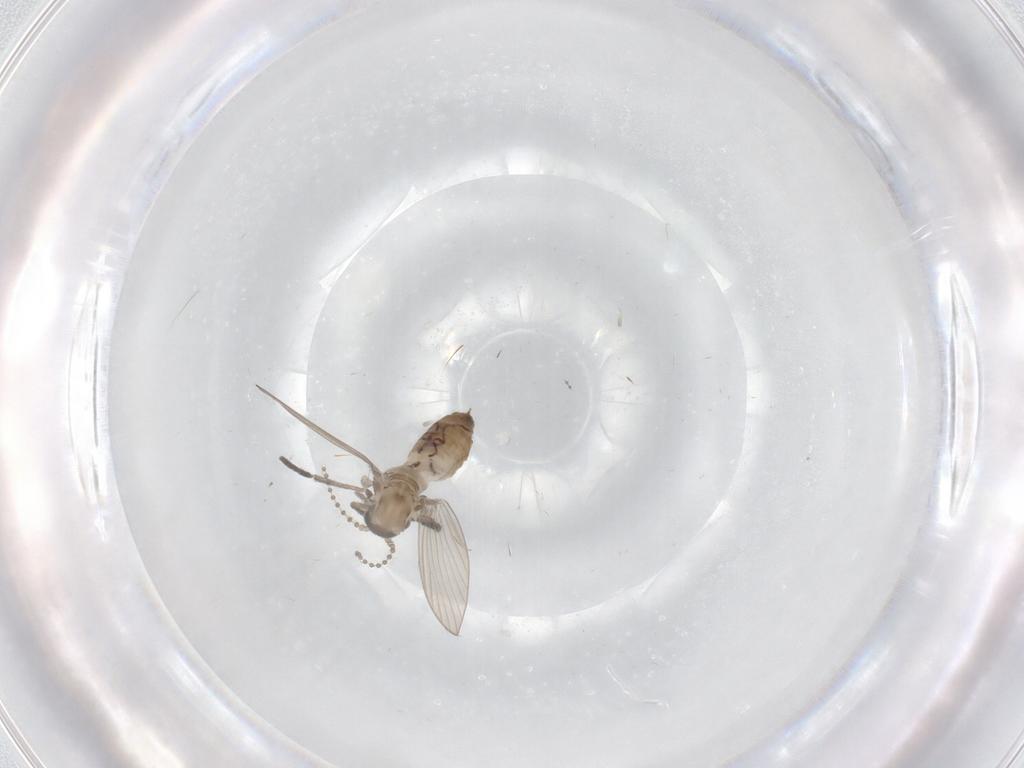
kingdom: Animalia
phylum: Arthropoda
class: Insecta
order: Diptera
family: Psychodidae
